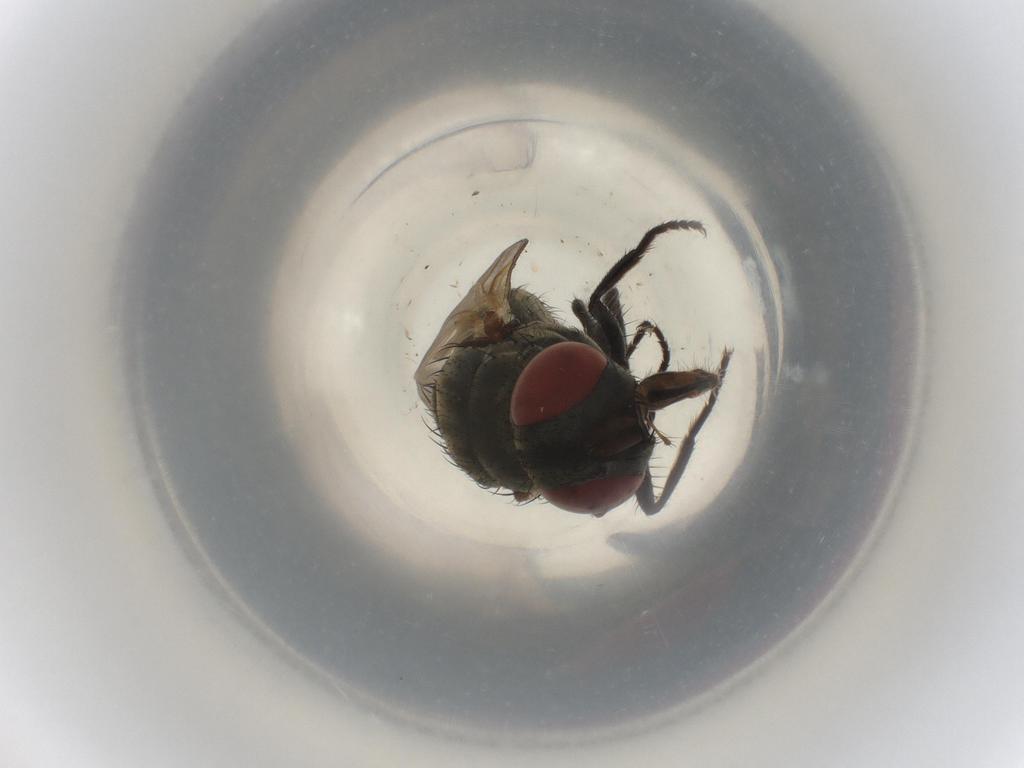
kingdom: Animalia
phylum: Arthropoda
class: Insecta
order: Diptera
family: Muscidae
